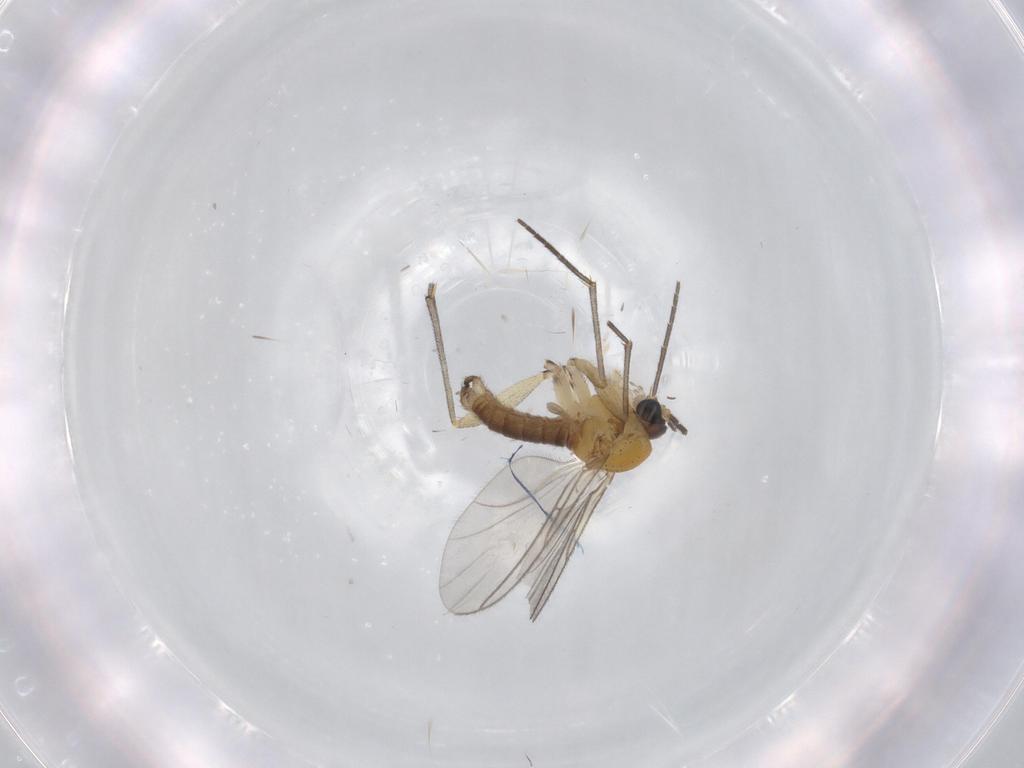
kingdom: Animalia
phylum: Arthropoda
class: Insecta
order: Diptera
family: Sciaridae
